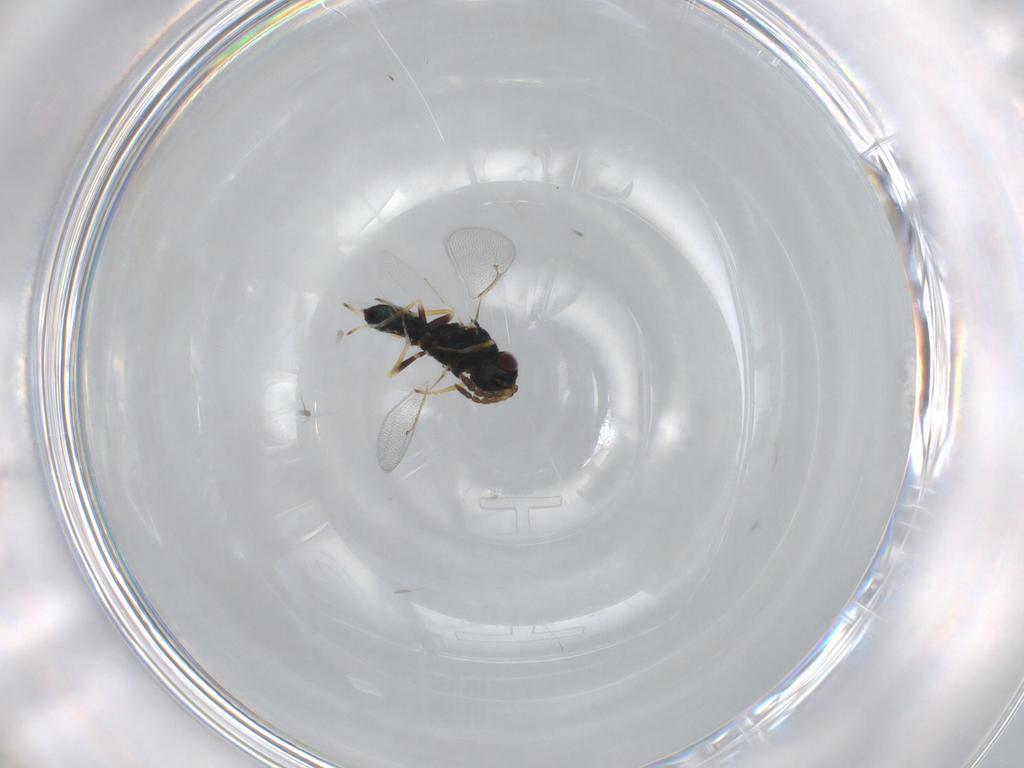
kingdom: Animalia
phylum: Arthropoda
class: Insecta
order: Hymenoptera
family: Eulophidae
